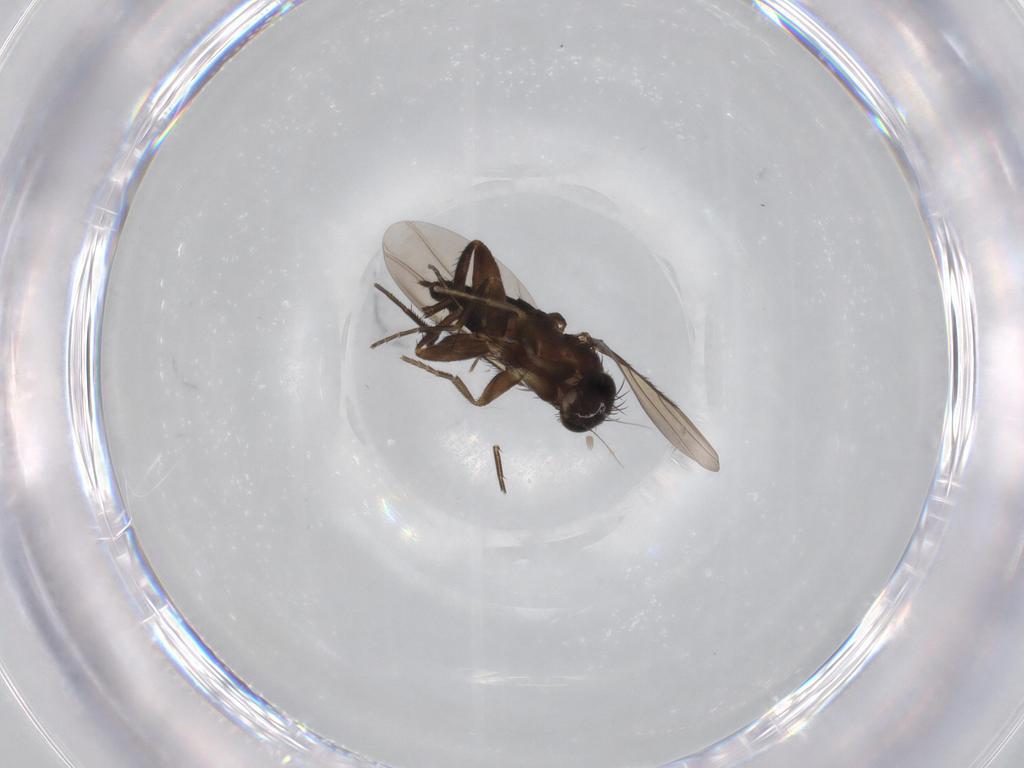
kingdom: Animalia
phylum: Arthropoda
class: Insecta
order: Diptera
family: Phoridae
